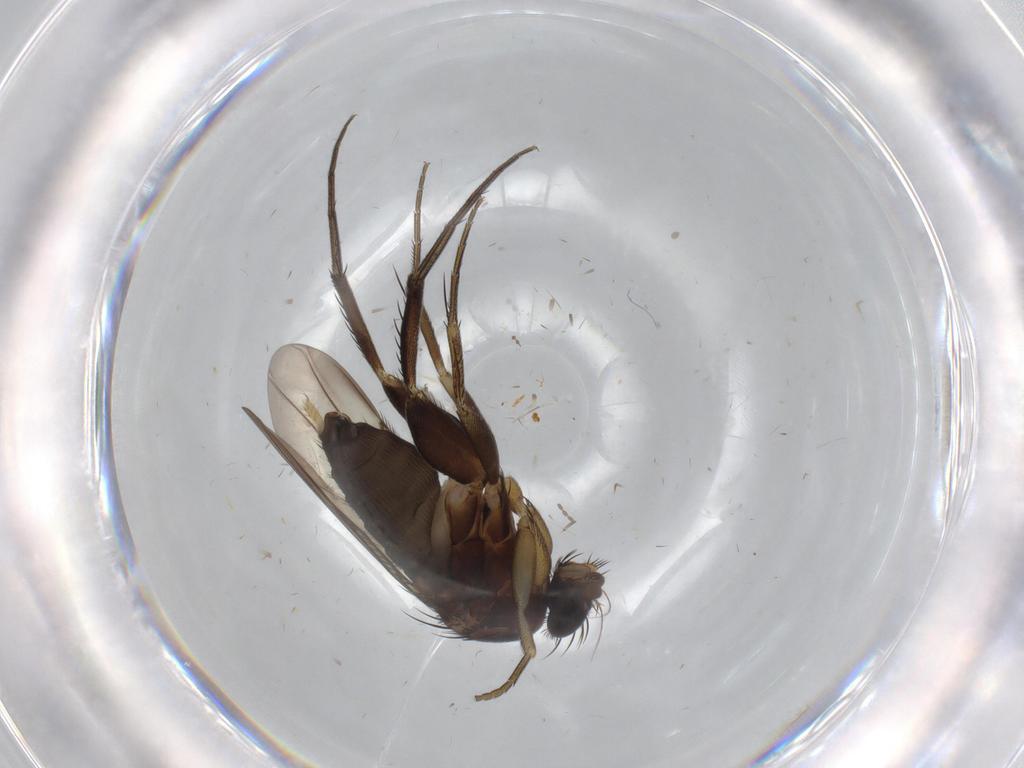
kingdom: Animalia
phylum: Arthropoda
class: Insecta
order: Diptera
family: Phoridae
